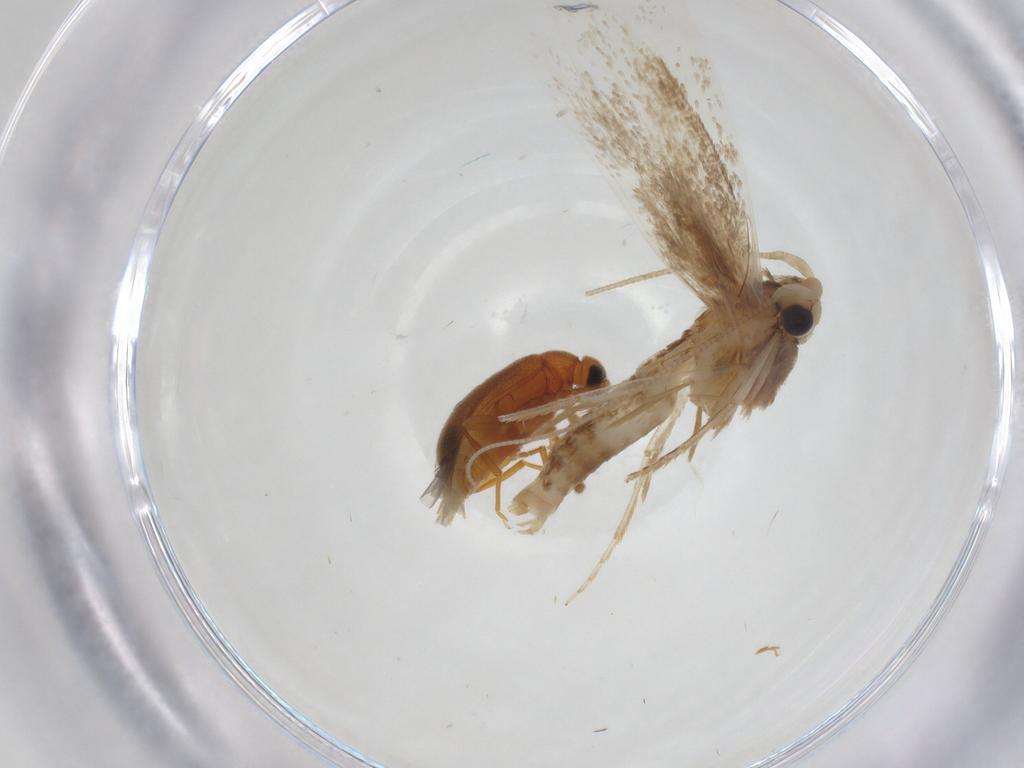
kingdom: Animalia
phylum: Arthropoda
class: Insecta
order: Lepidoptera
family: Tineidae
